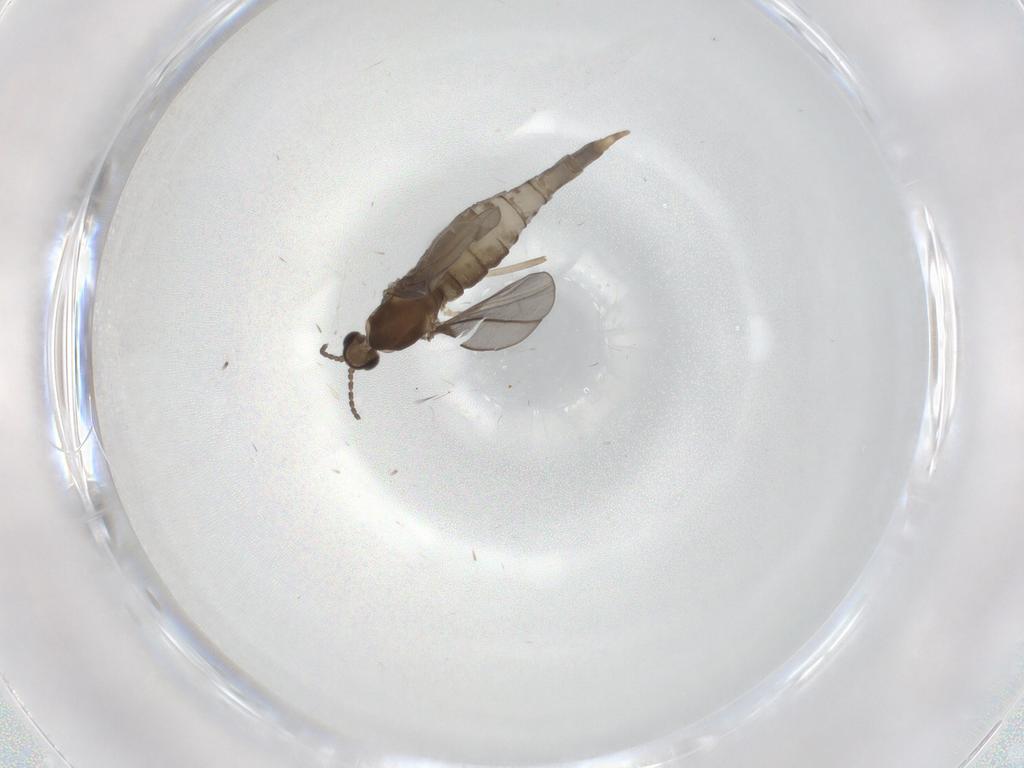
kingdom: Animalia
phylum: Arthropoda
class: Insecta
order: Diptera
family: Cecidomyiidae
